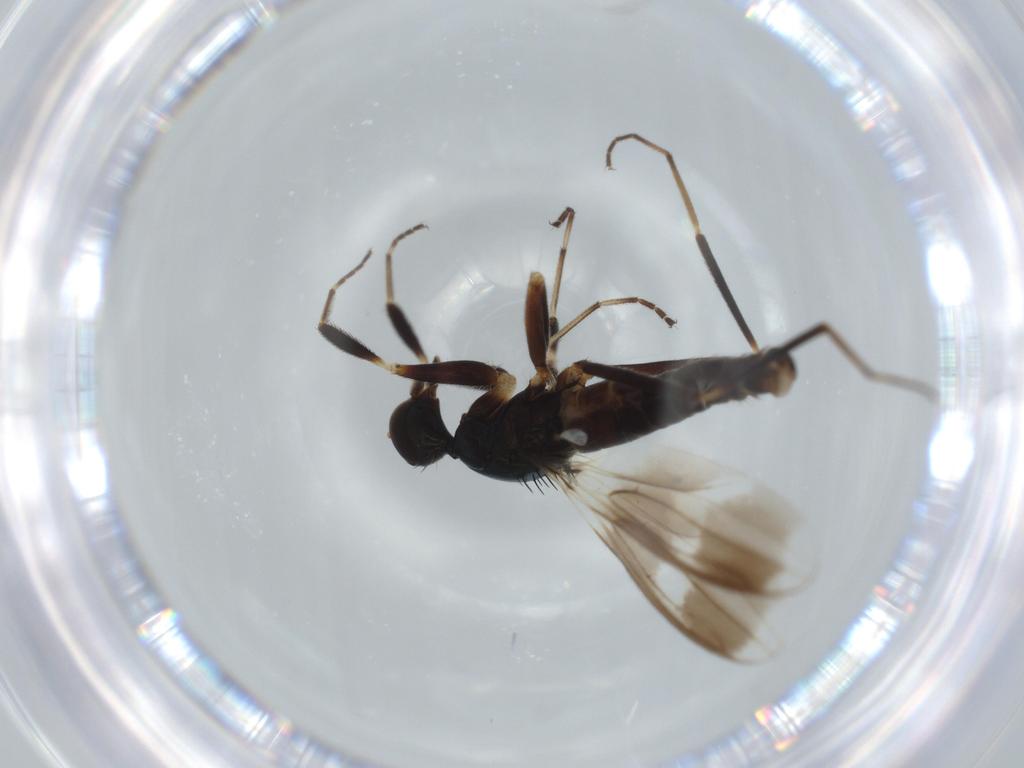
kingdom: Animalia
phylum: Arthropoda
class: Insecta
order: Diptera
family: Hybotidae
